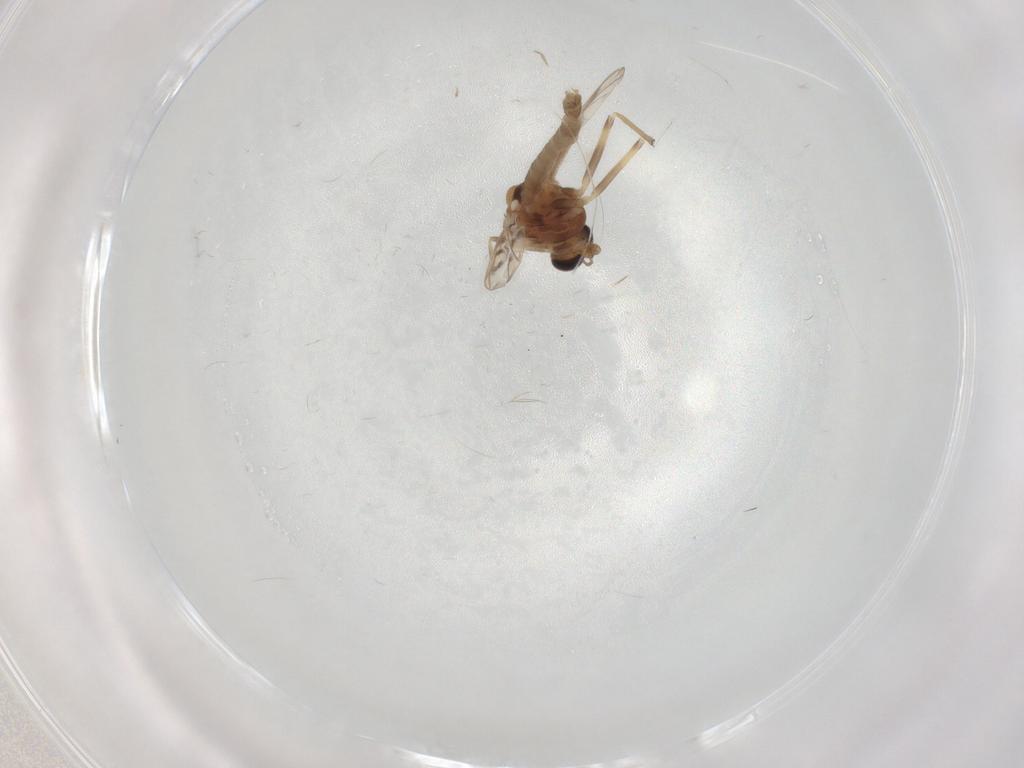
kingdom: Animalia
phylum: Arthropoda
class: Insecta
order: Diptera
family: Chironomidae
